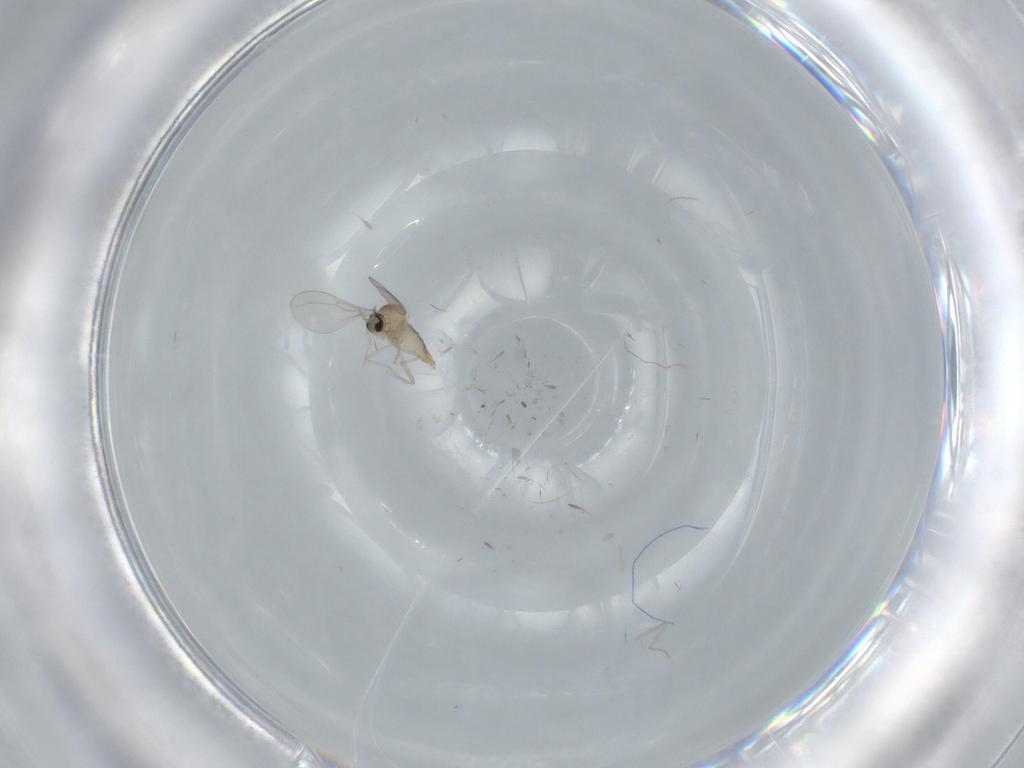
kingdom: Animalia
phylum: Arthropoda
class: Insecta
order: Diptera
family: Cecidomyiidae
